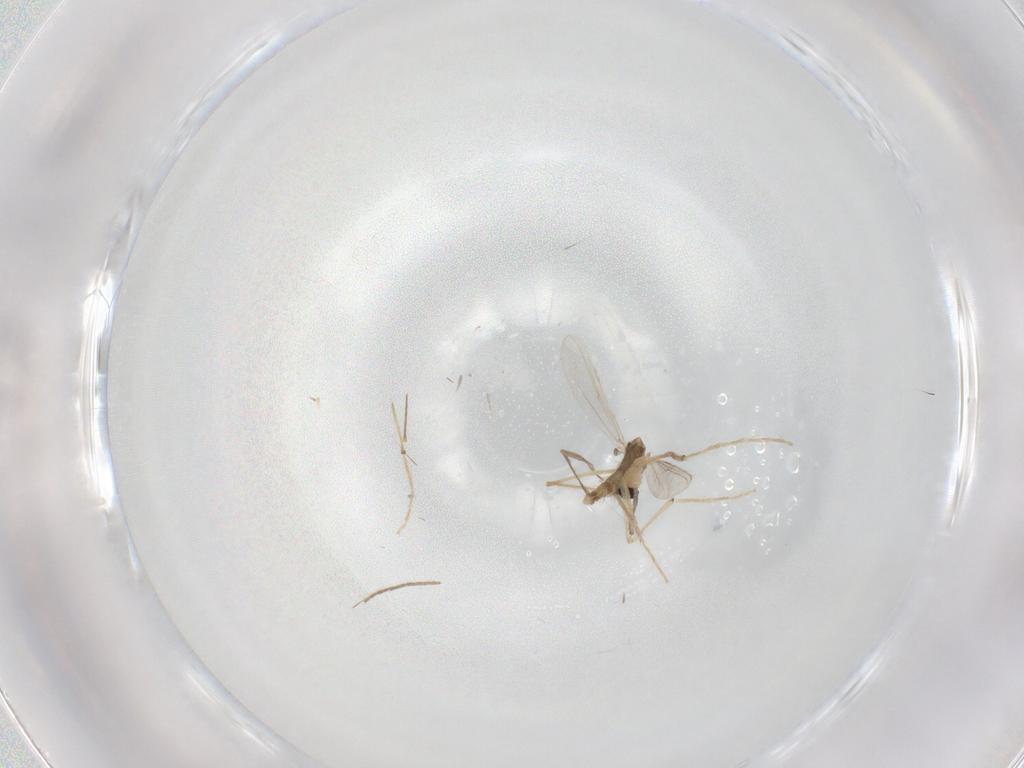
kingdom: Animalia
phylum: Arthropoda
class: Insecta
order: Diptera
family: Chironomidae
